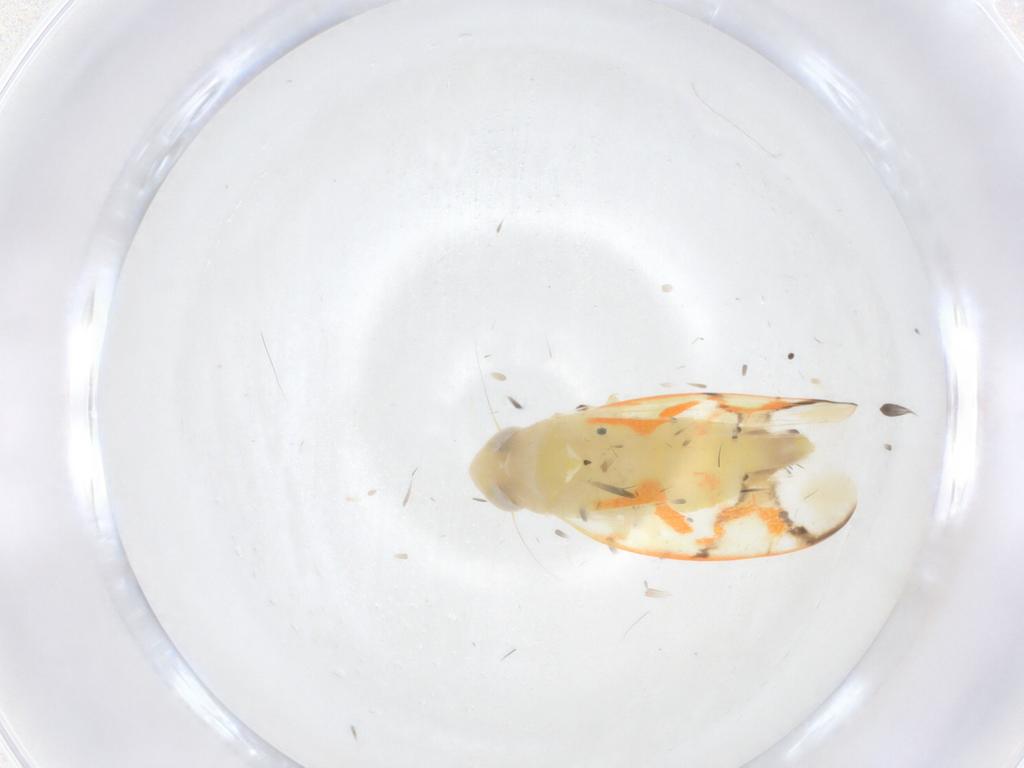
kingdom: Animalia
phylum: Arthropoda
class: Insecta
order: Hemiptera
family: Cicadellidae
